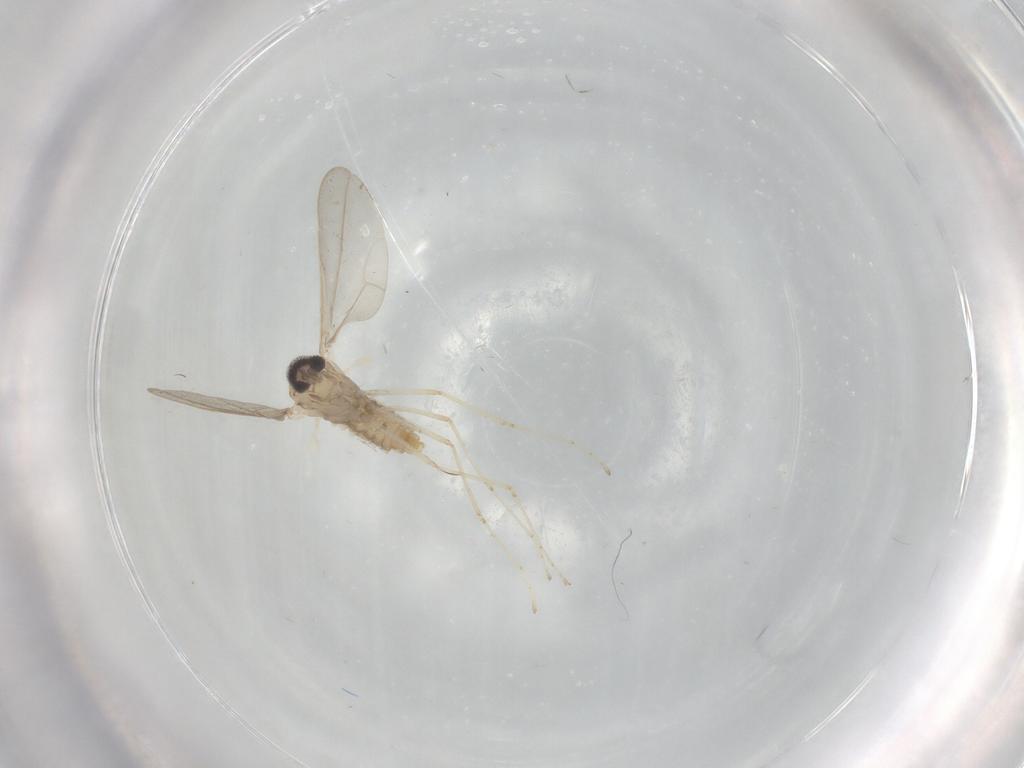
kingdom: Animalia
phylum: Arthropoda
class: Insecta
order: Diptera
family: Cecidomyiidae
